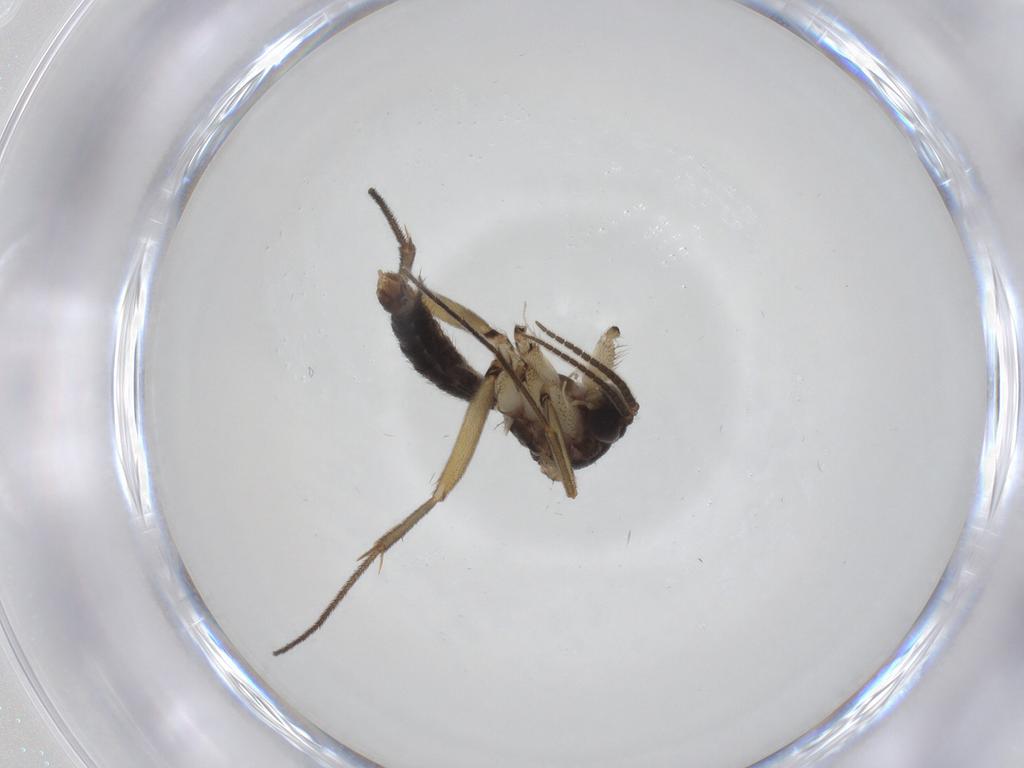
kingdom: Animalia
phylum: Arthropoda
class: Insecta
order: Diptera
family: Mycetophilidae
